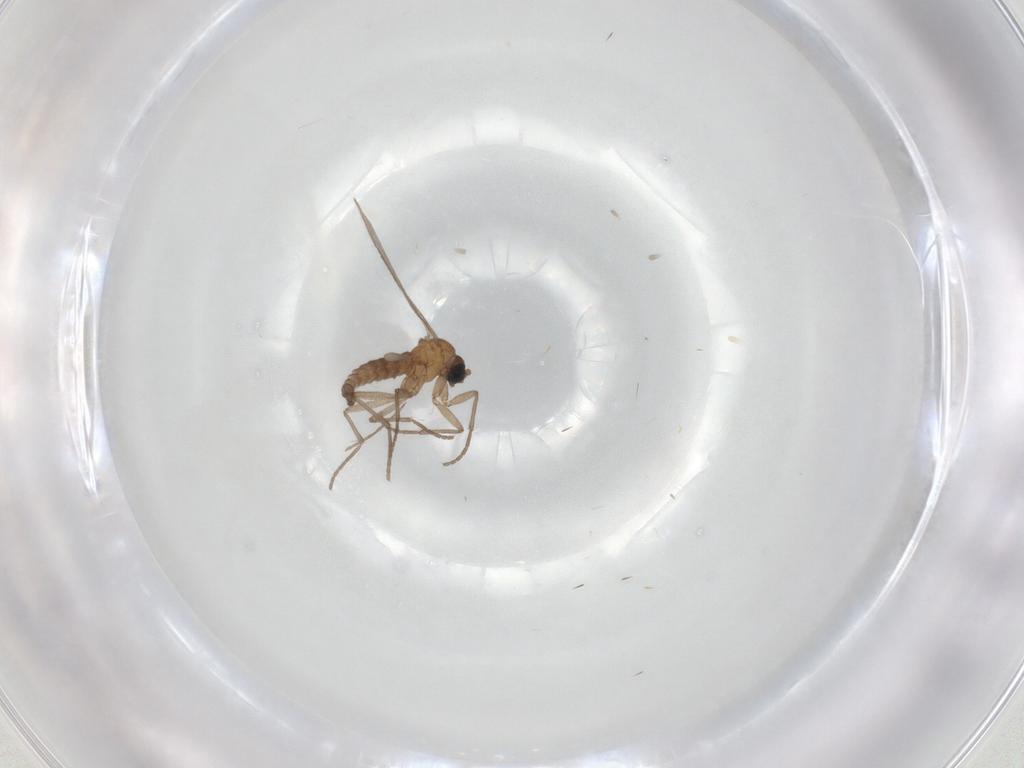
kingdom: Animalia
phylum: Arthropoda
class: Insecta
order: Diptera
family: Sciaridae
